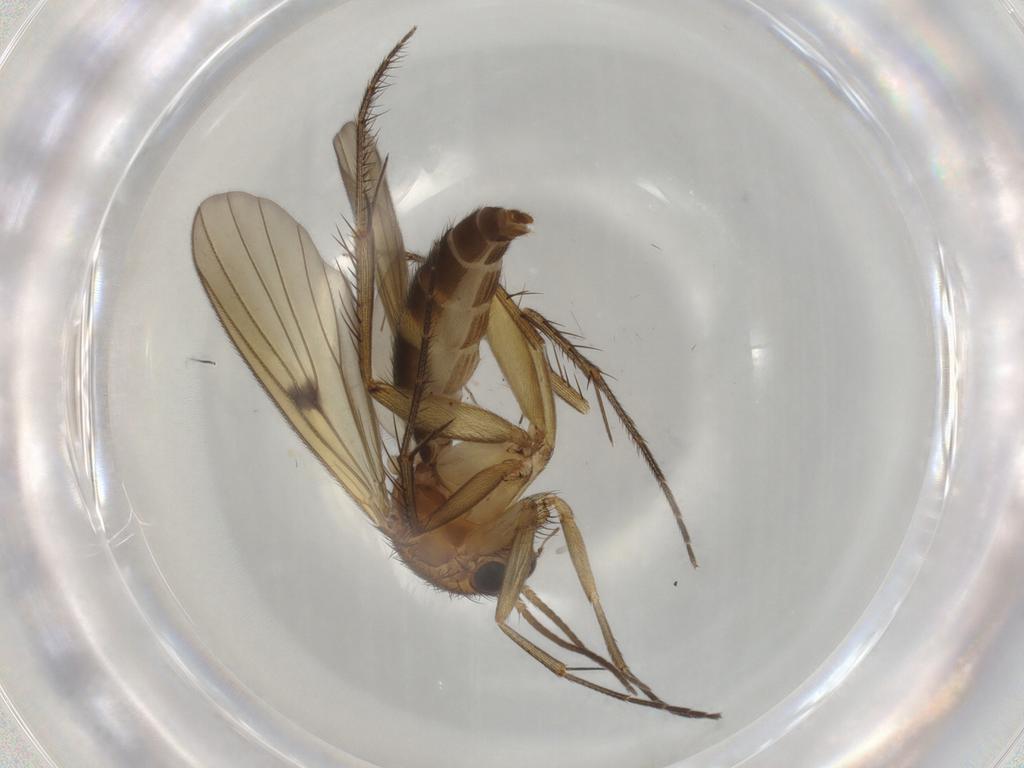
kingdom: Animalia
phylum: Arthropoda
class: Insecta
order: Diptera
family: Mycetophilidae
